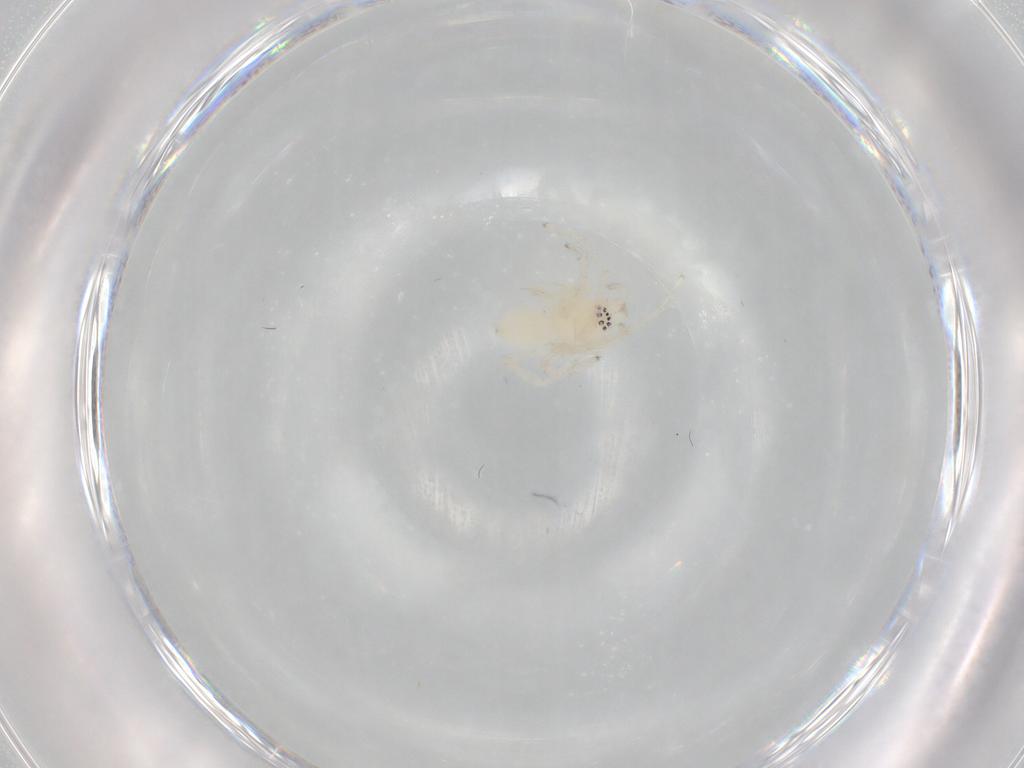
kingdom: Animalia
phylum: Arthropoda
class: Arachnida
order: Araneae
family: Anyphaenidae
